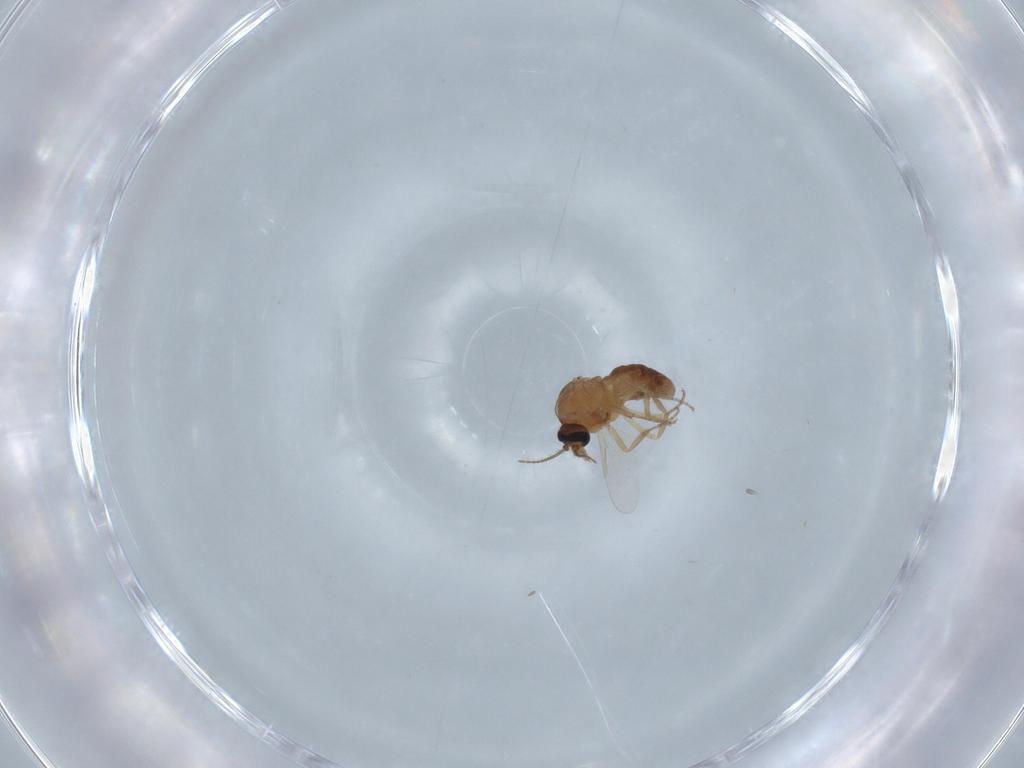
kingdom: Animalia
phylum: Arthropoda
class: Insecta
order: Diptera
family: Ceratopogonidae
